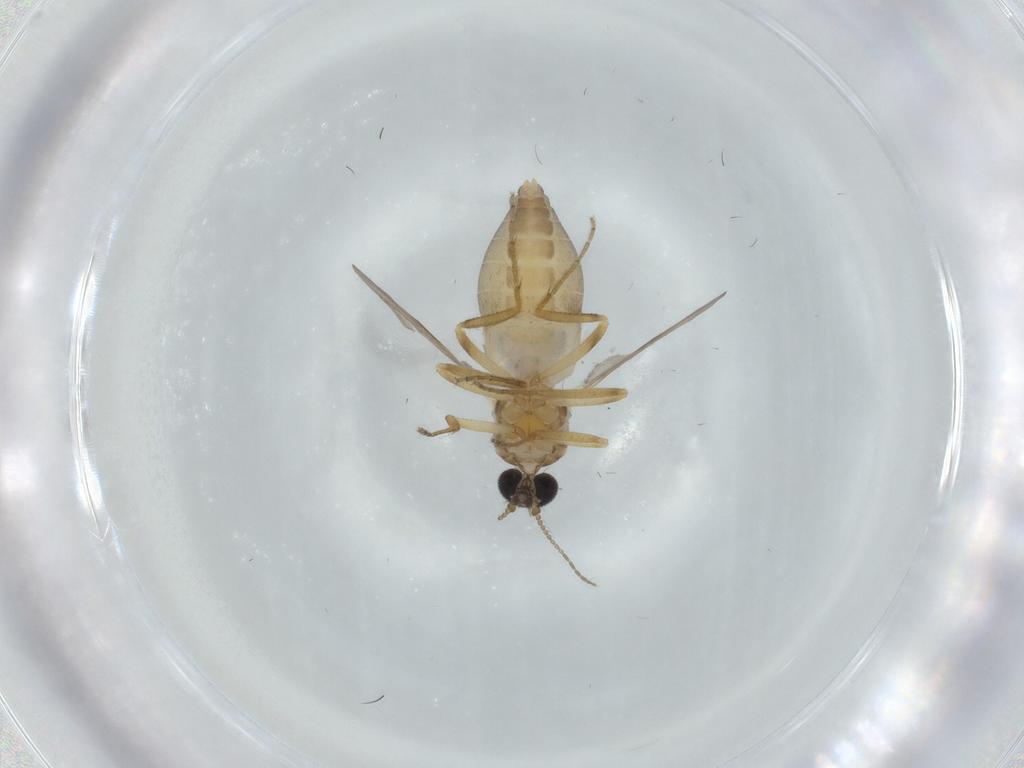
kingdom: Animalia
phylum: Arthropoda
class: Insecta
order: Diptera
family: Ceratopogonidae
